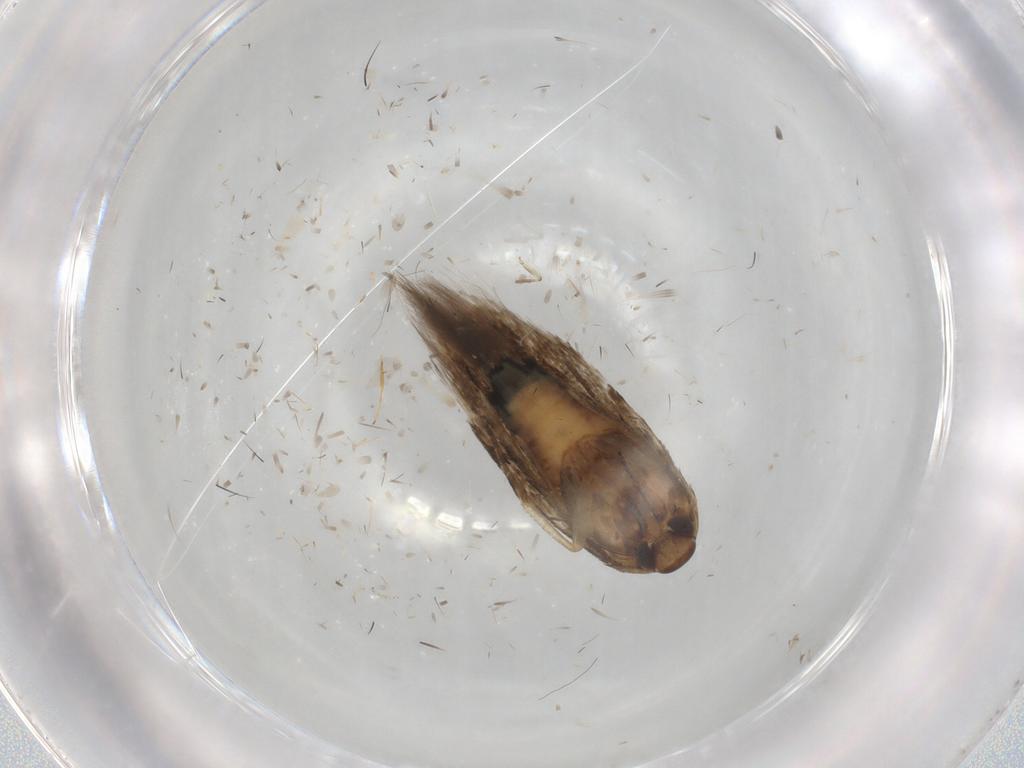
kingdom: Animalia
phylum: Arthropoda
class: Insecta
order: Lepidoptera
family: Cosmopterigidae
